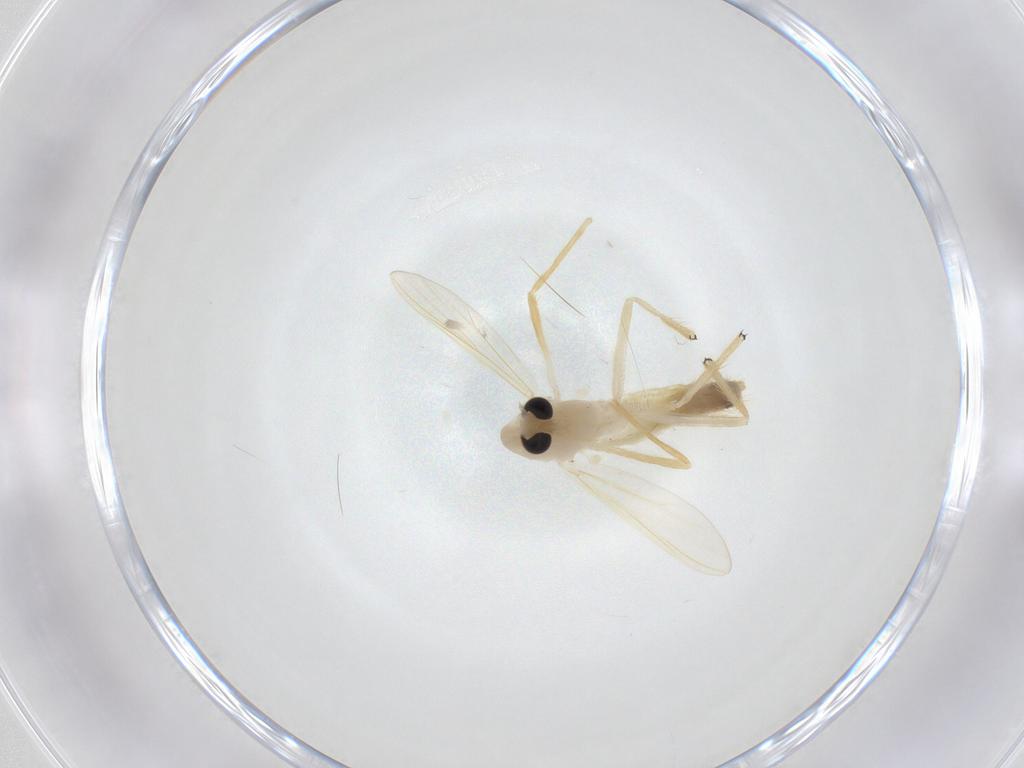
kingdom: Animalia
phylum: Arthropoda
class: Insecta
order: Diptera
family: Chironomidae
